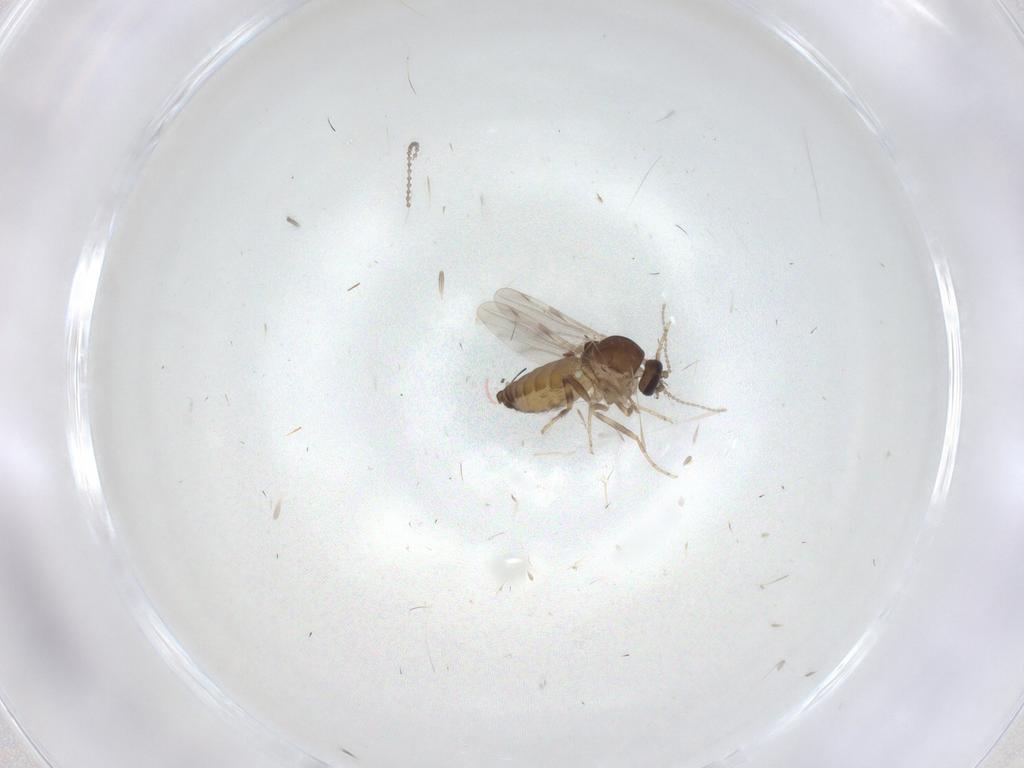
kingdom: Animalia
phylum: Arthropoda
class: Insecta
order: Diptera
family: Ceratopogonidae
